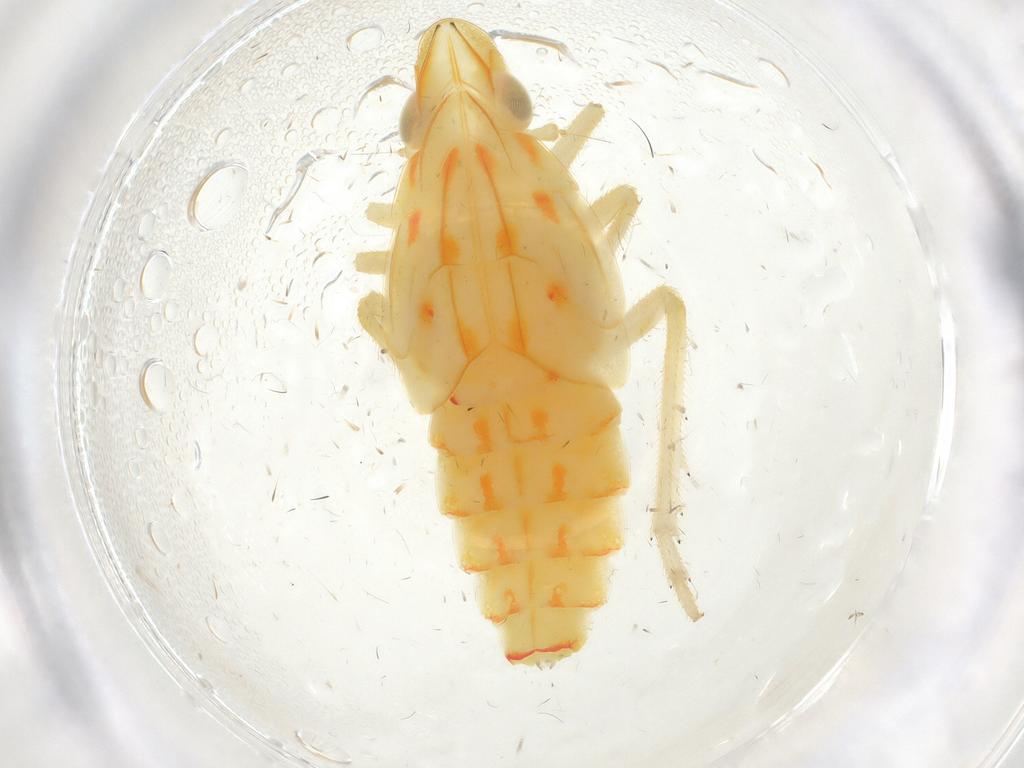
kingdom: Animalia
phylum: Arthropoda
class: Insecta
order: Hemiptera
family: Tropiduchidae
